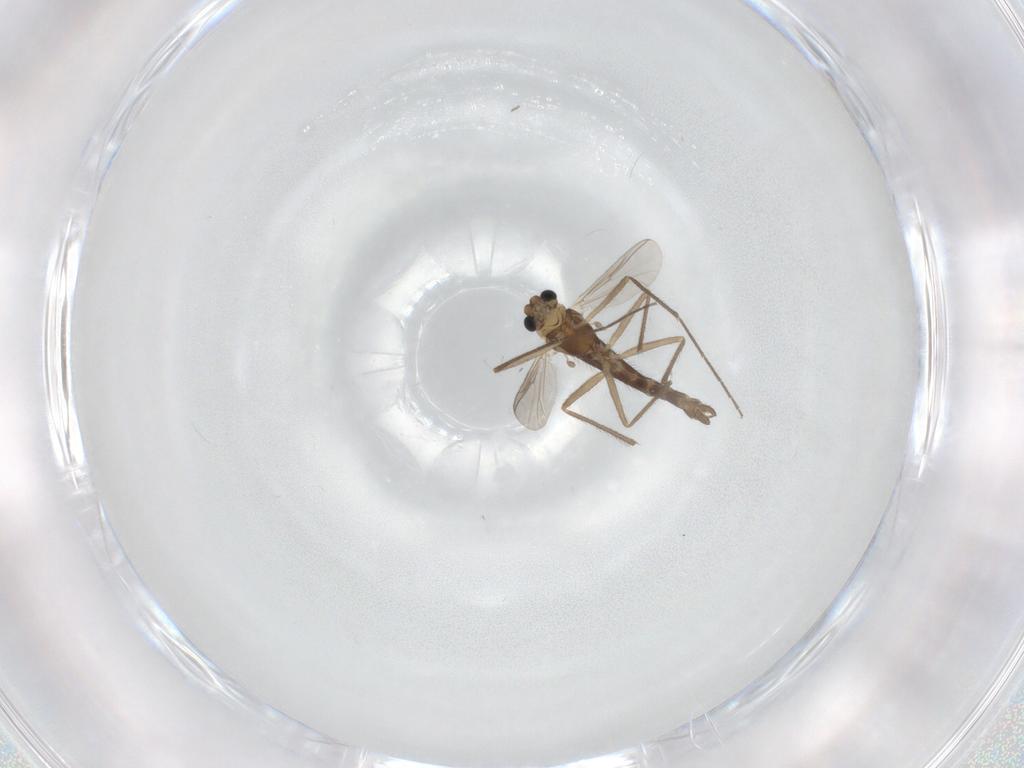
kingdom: Animalia
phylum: Arthropoda
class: Insecta
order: Diptera
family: Chironomidae
